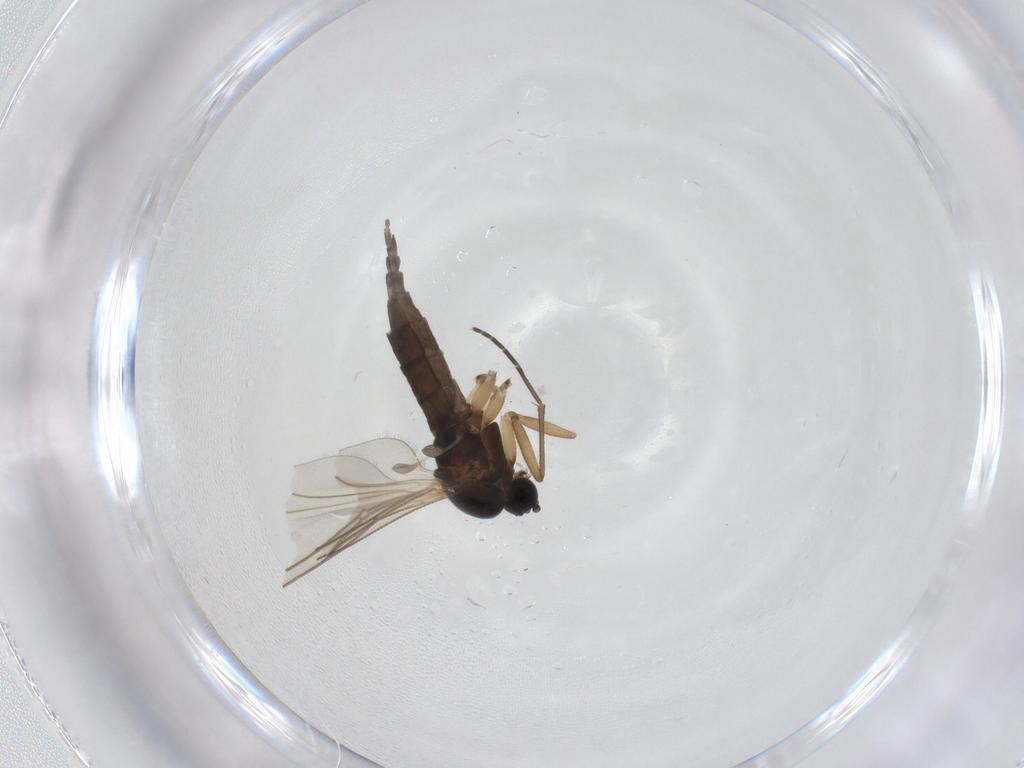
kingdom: Animalia
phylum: Arthropoda
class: Insecta
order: Diptera
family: Sciaridae
